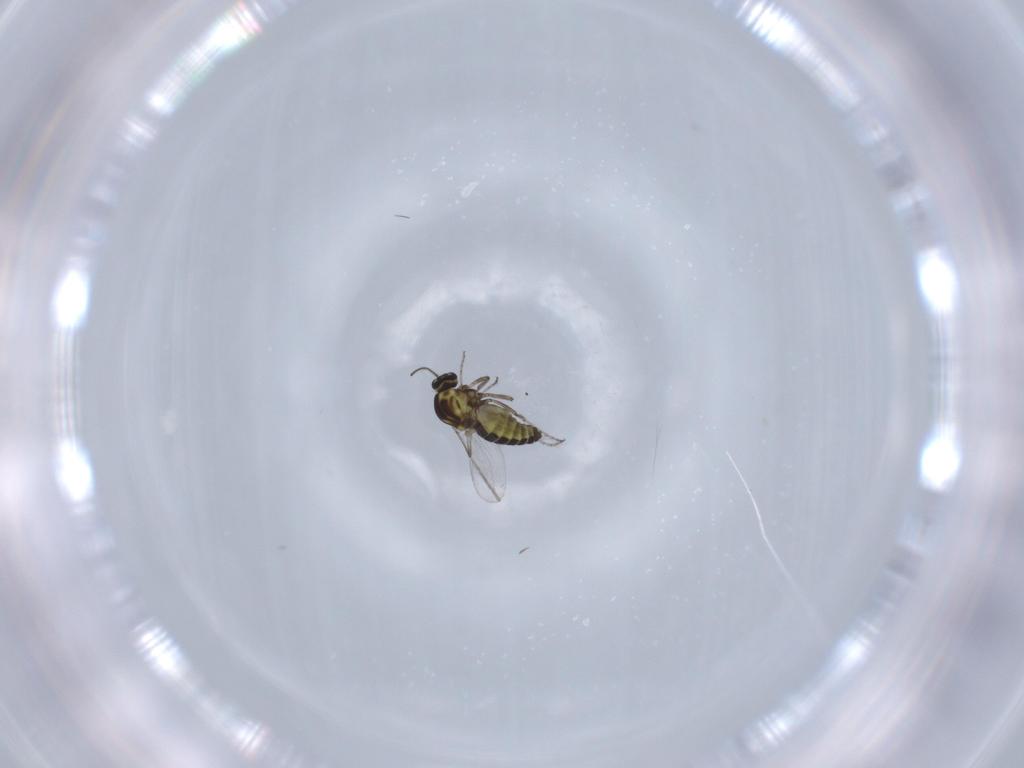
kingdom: Animalia
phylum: Arthropoda
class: Insecta
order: Diptera
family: Ceratopogonidae
